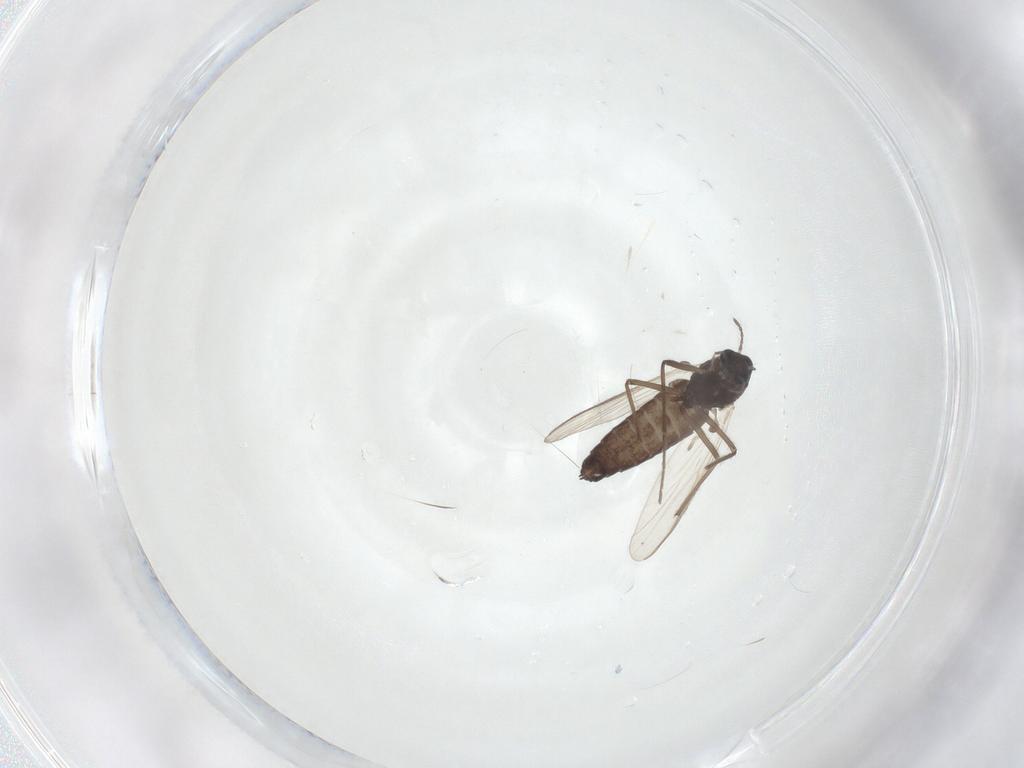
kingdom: Animalia
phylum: Arthropoda
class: Insecta
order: Diptera
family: Chironomidae
